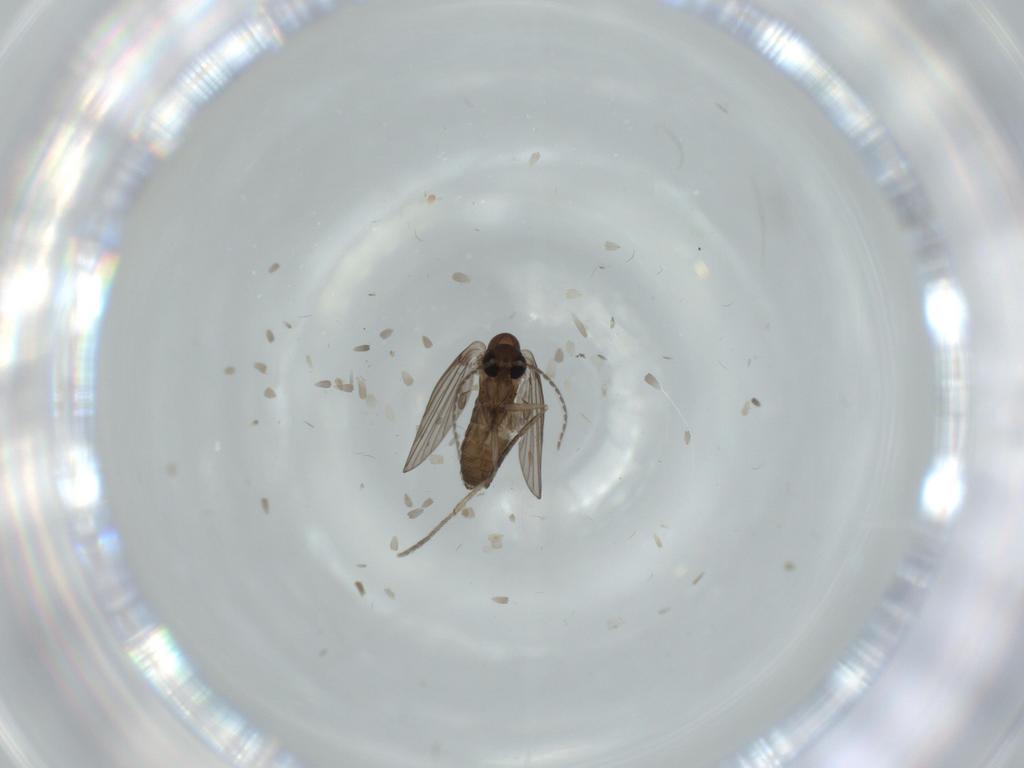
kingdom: Animalia
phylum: Arthropoda
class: Insecta
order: Diptera
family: Psychodidae
